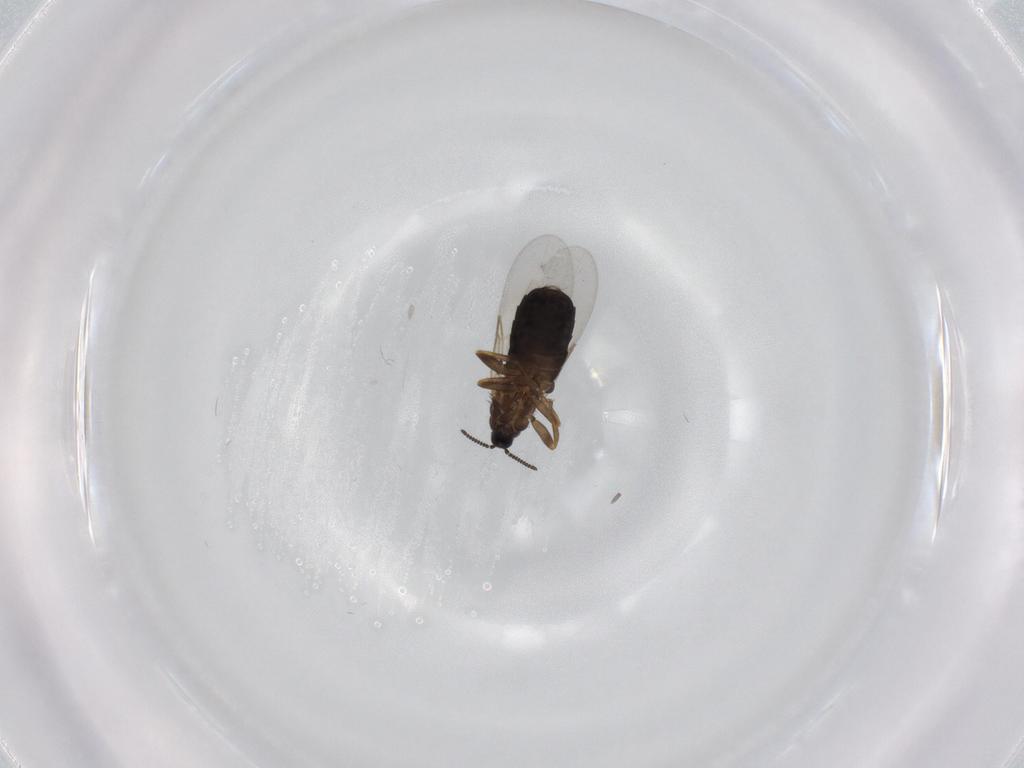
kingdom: Animalia
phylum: Arthropoda
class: Insecta
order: Diptera
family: Scatopsidae
